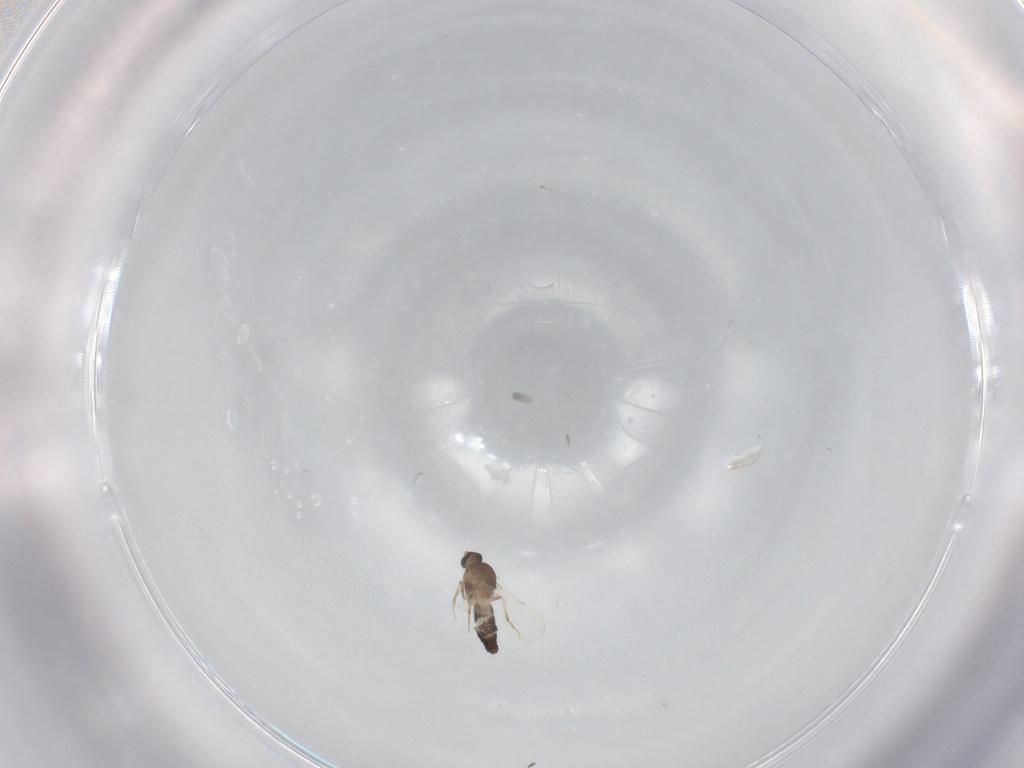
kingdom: Animalia
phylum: Arthropoda
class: Insecta
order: Diptera
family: Ceratopogonidae
